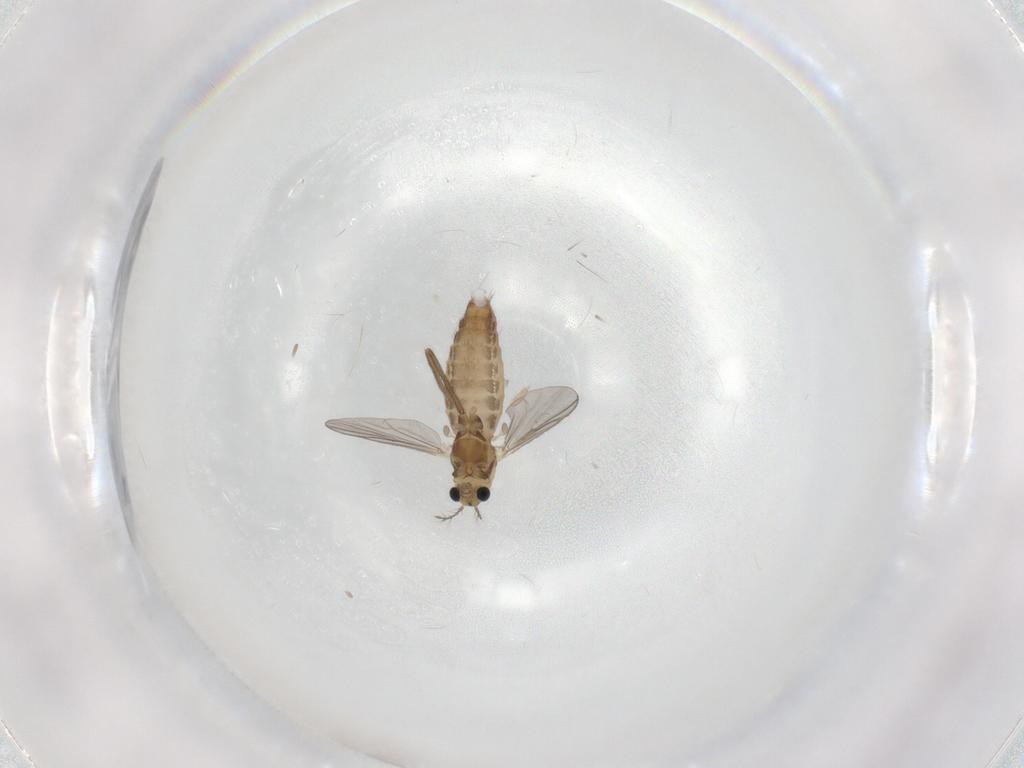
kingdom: Animalia
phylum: Arthropoda
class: Insecta
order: Diptera
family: Chironomidae
